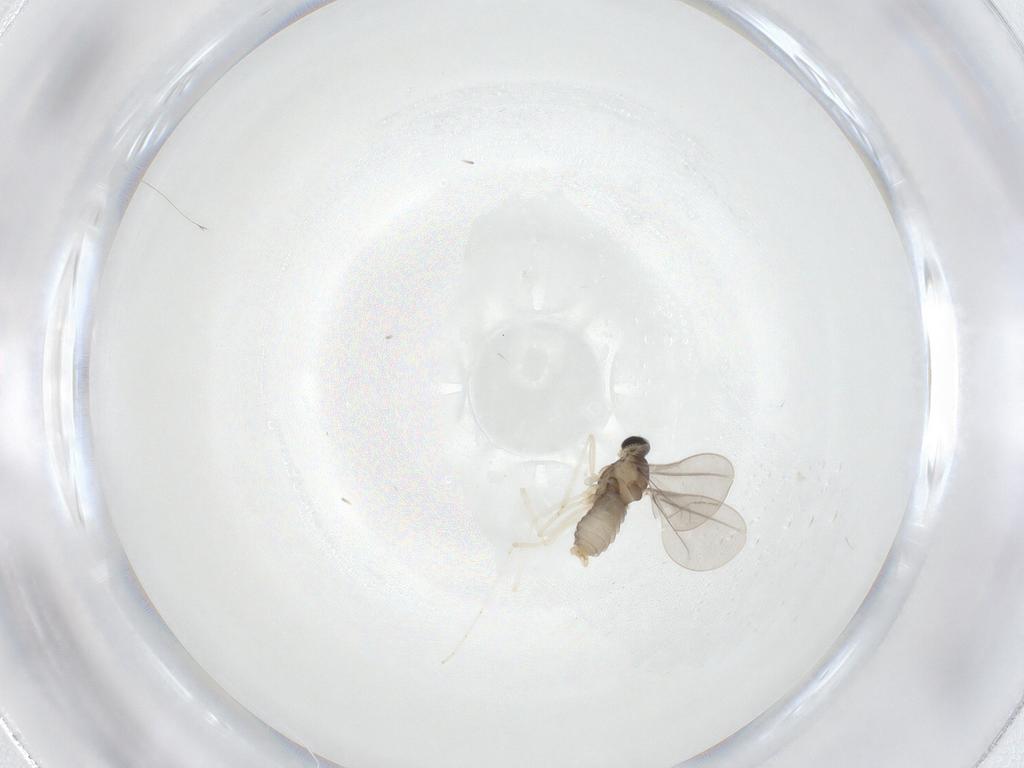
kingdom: Animalia
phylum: Arthropoda
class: Insecta
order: Diptera
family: Cecidomyiidae
